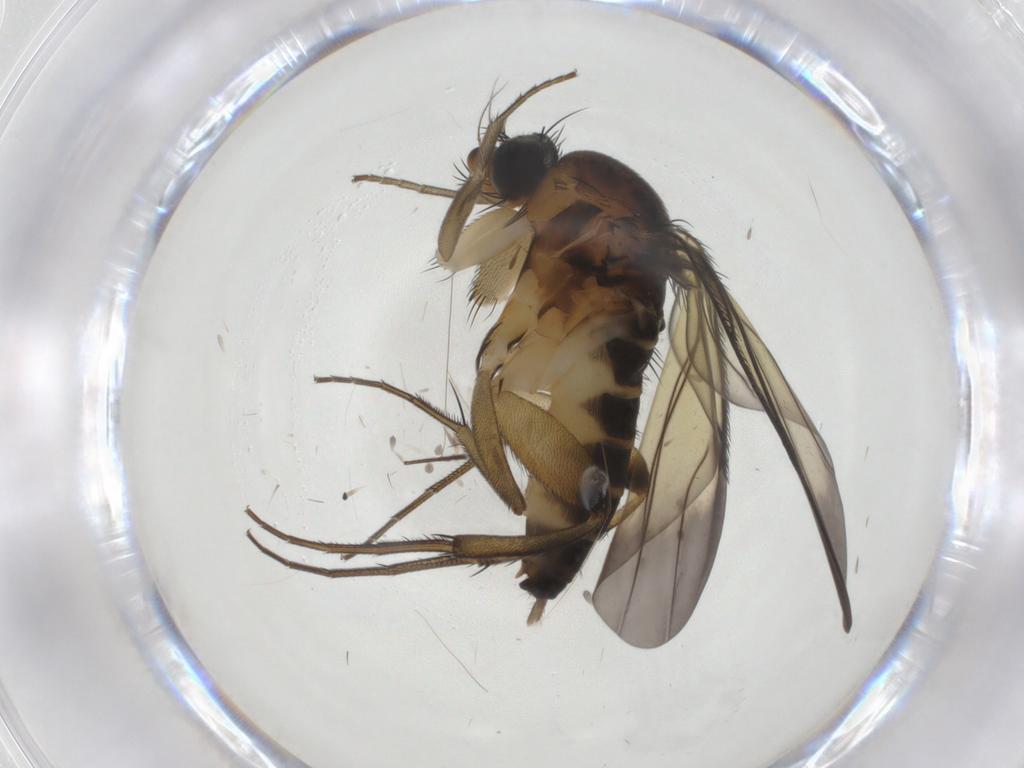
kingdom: Animalia
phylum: Arthropoda
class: Insecta
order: Diptera
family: Phoridae
